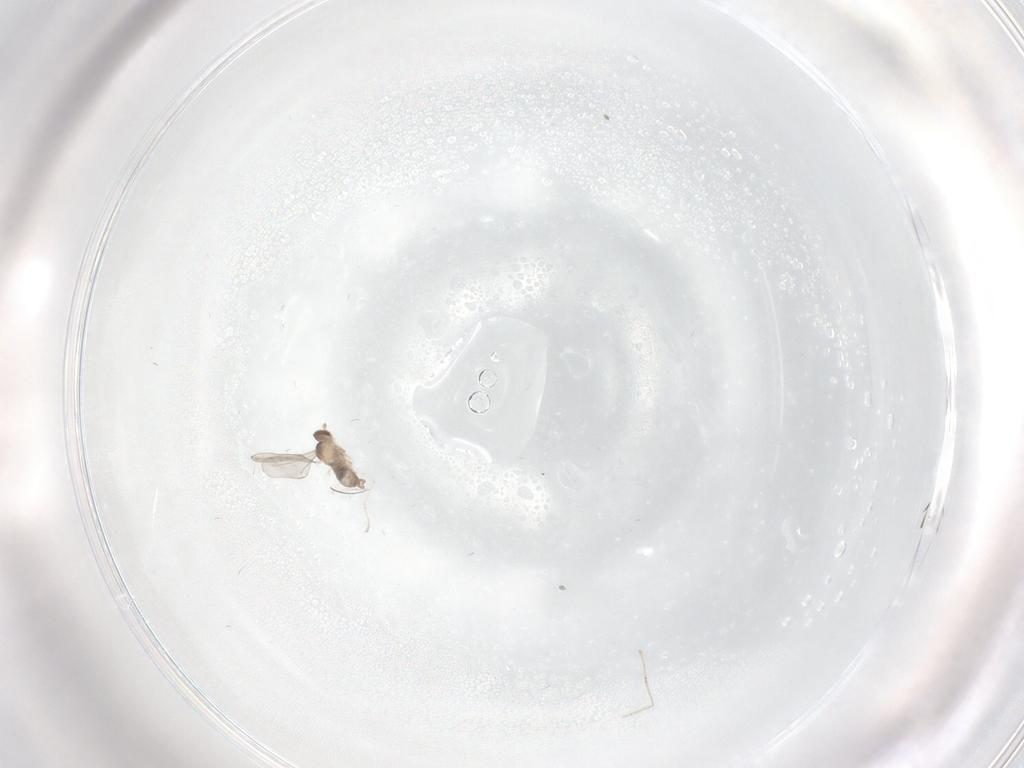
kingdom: Animalia
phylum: Arthropoda
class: Insecta
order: Diptera
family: Cecidomyiidae
